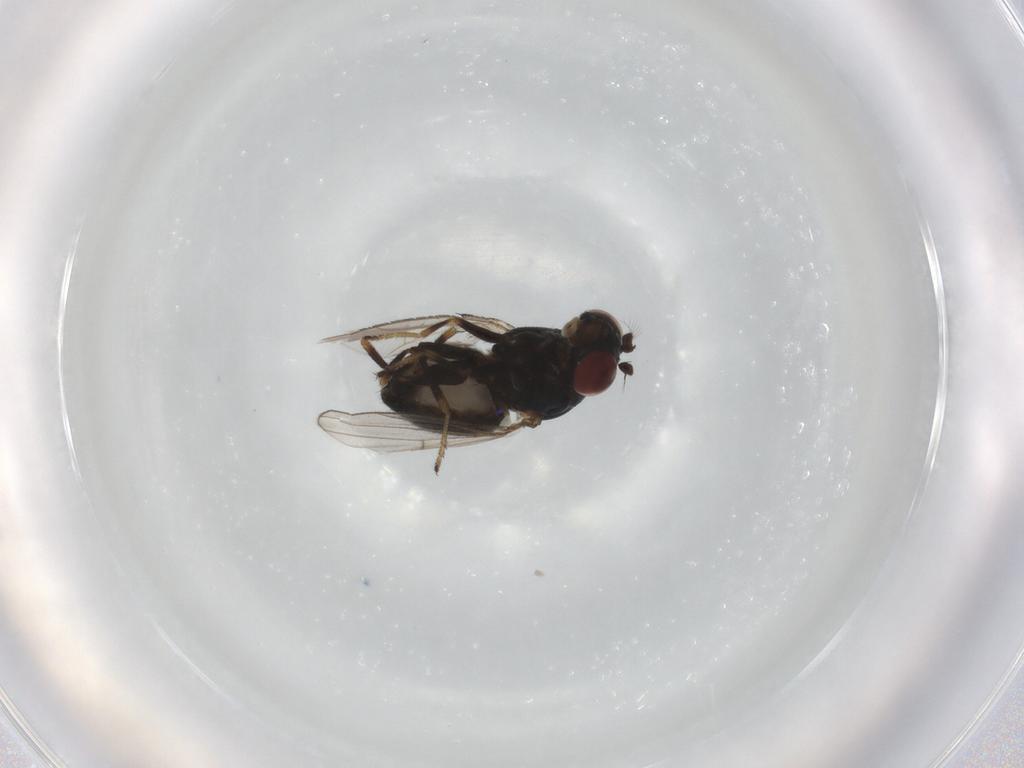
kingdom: Animalia
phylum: Arthropoda
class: Insecta
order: Diptera
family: Ephydridae
